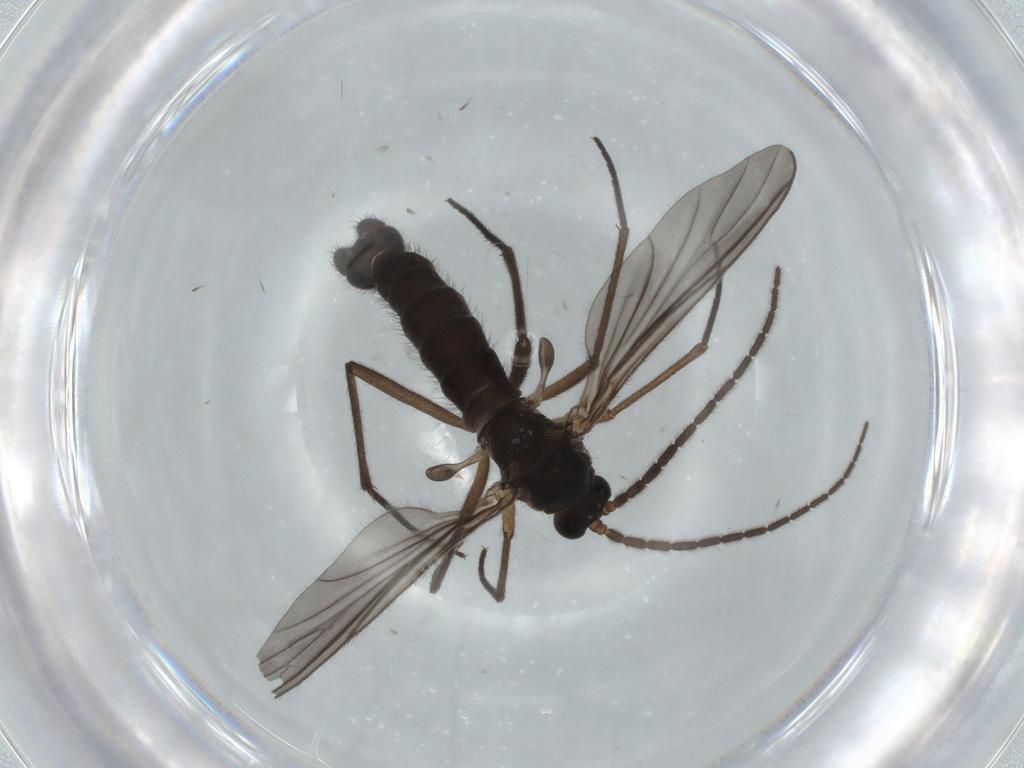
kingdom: Animalia
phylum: Arthropoda
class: Insecta
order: Diptera
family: Sciaridae
